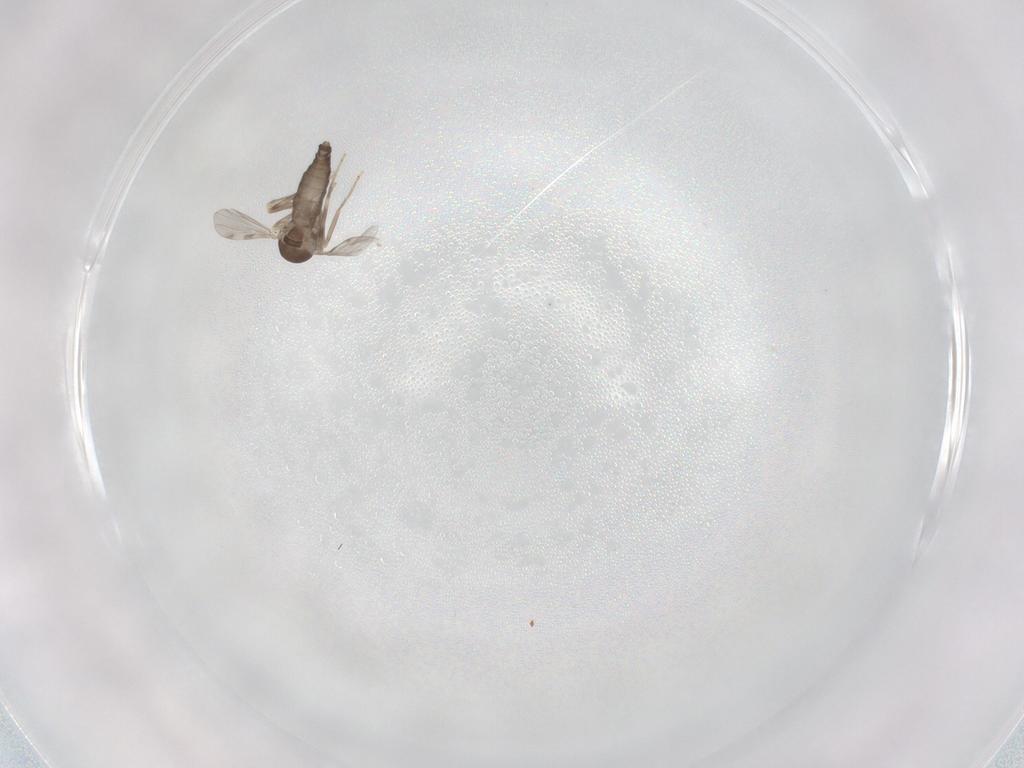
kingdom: Animalia
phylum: Arthropoda
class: Insecta
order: Diptera
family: Ceratopogonidae
